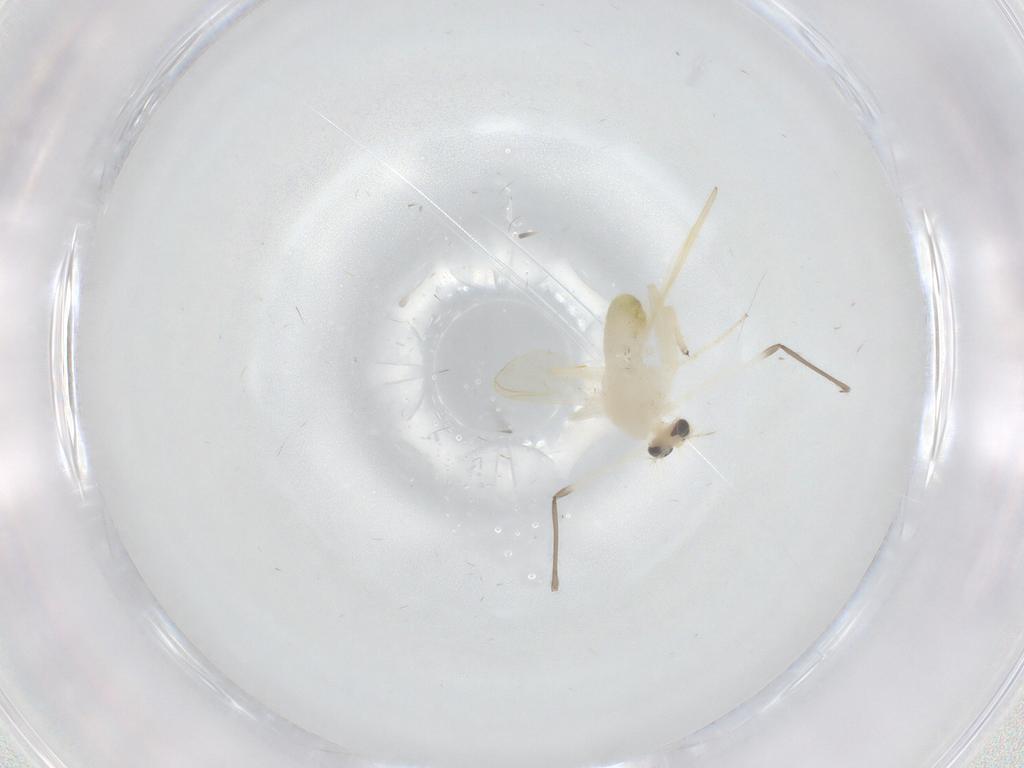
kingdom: Animalia
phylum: Arthropoda
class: Insecta
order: Diptera
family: Chironomidae
